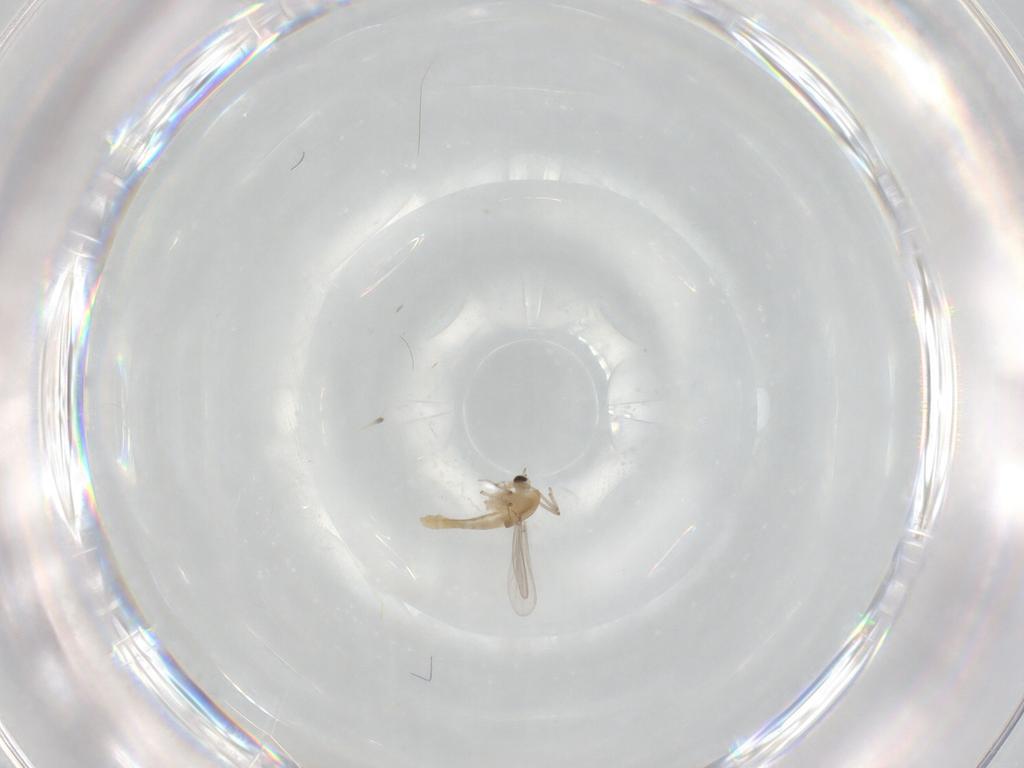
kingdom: Animalia
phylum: Arthropoda
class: Insecta
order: Diptera
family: Chironomidae
